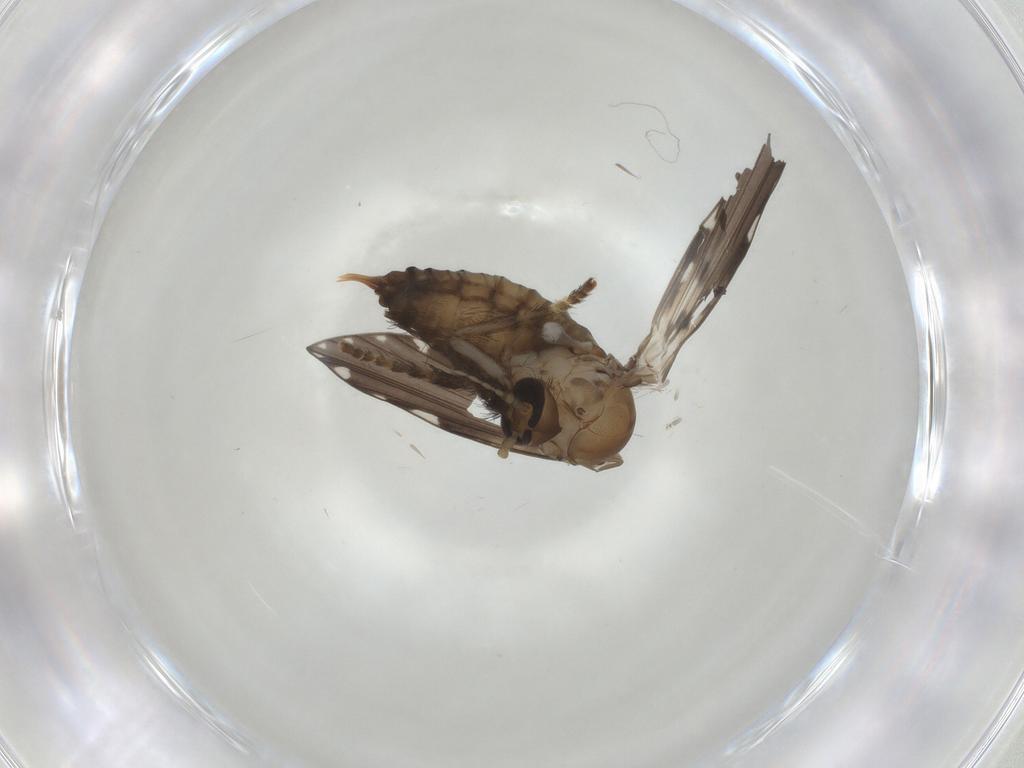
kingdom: Animalia
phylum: Arthropoda
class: Insecta
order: Diptera
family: Psychodidae
